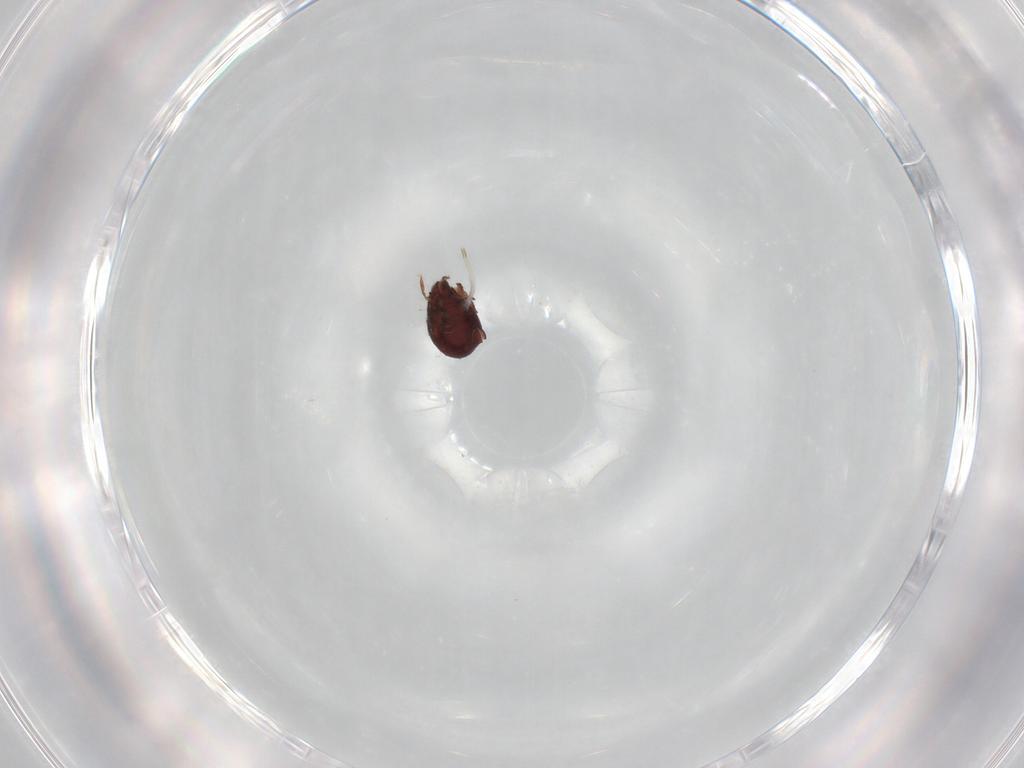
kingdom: Animalia
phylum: Arthropoda
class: Arachnida
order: Sarcoptiformes
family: Humerobatidae
